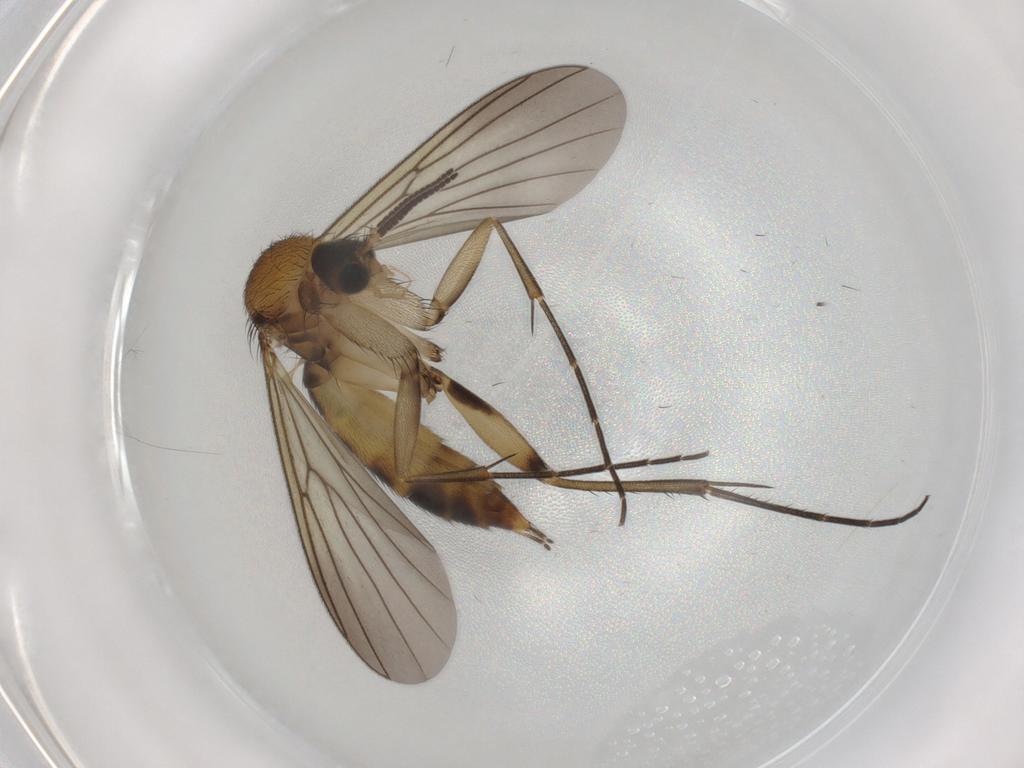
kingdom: Animalia
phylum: Arthropoda
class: Insecta
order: Diptera
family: Mycetophilidae
